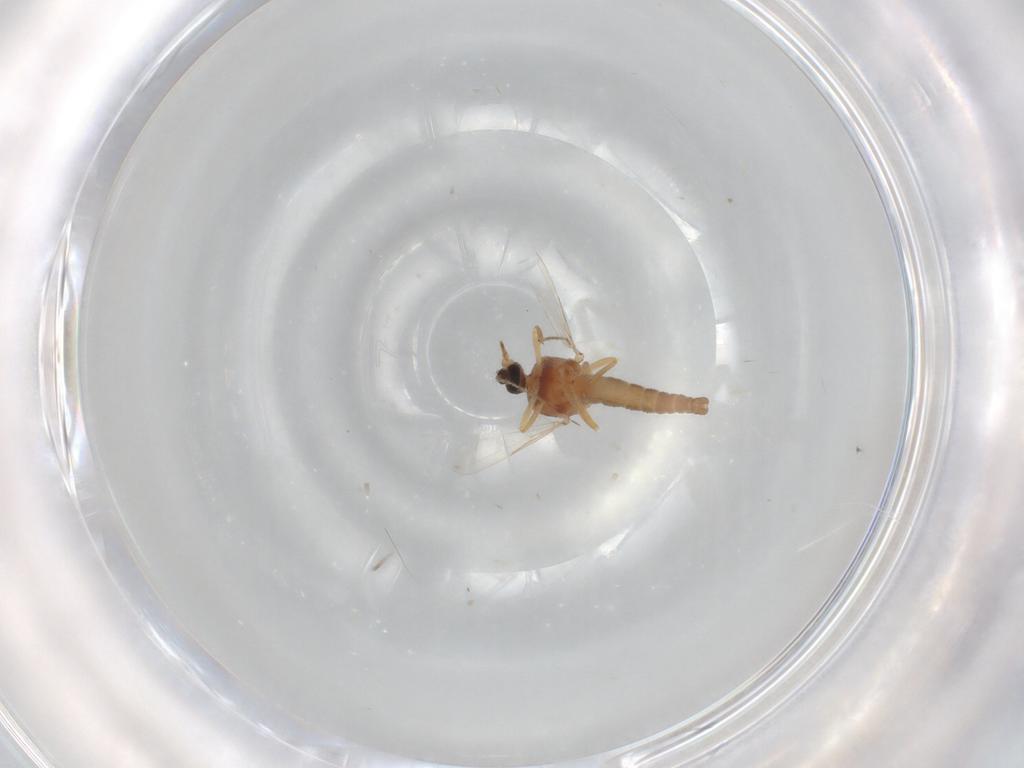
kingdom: Animalia
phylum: Arthropoda
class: Insecta
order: Diptera
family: Ceratopogonidae
